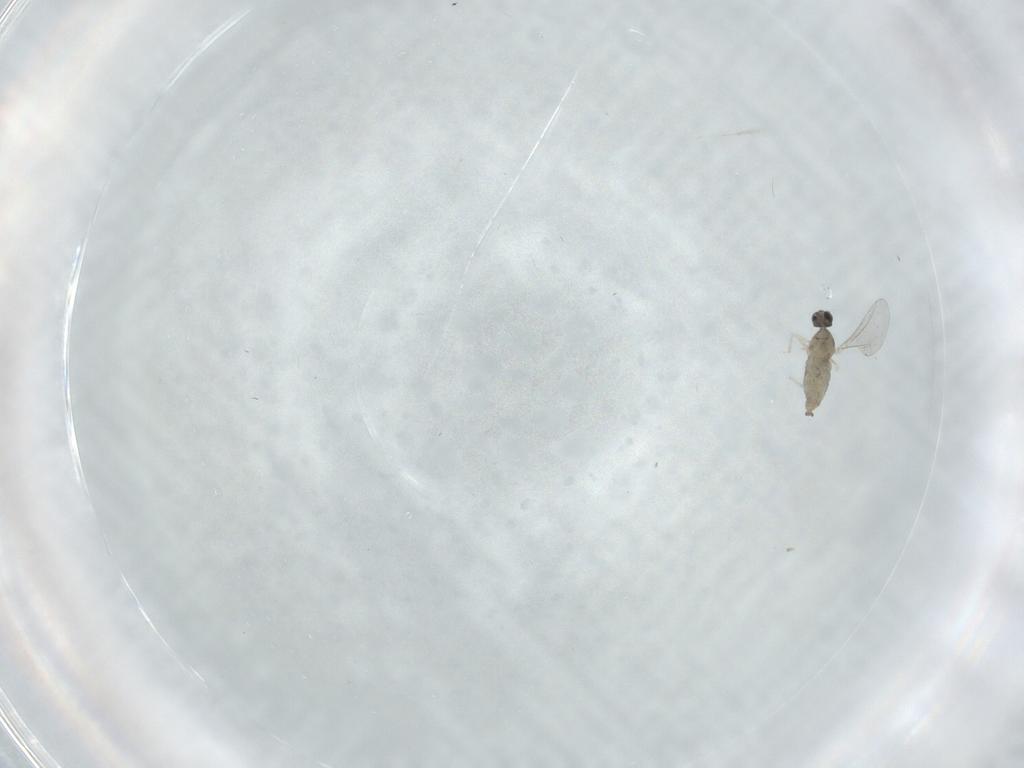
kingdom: Animalia
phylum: Arthropoda
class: Insecta
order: Diptera
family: Cecidomyiidae
